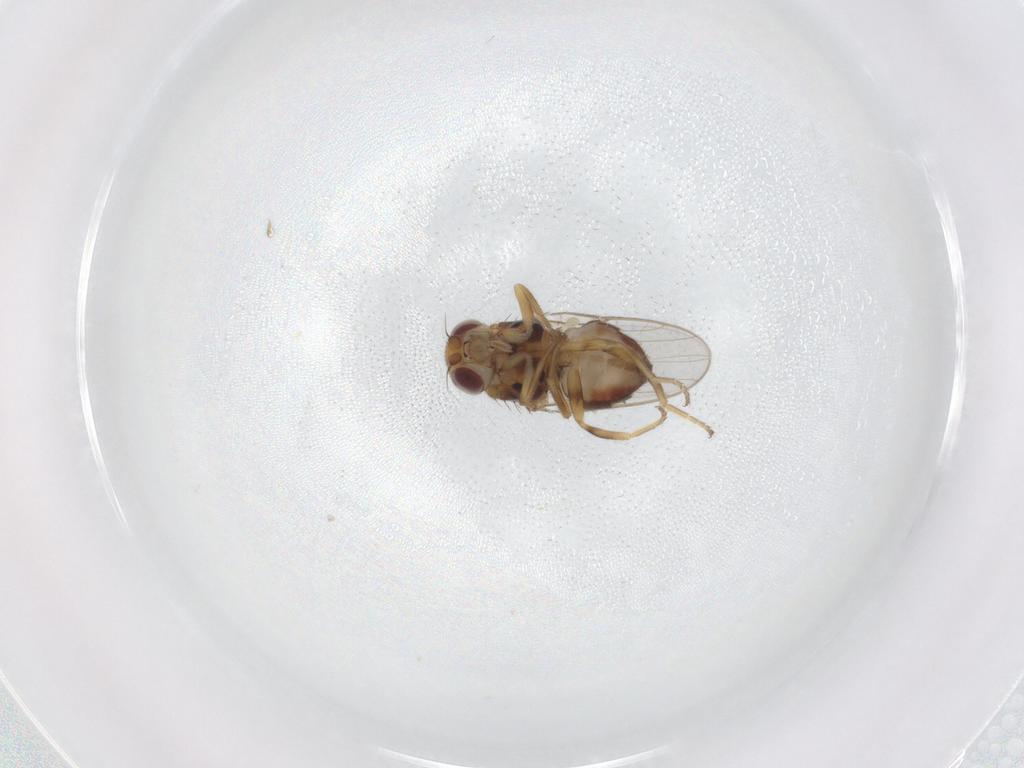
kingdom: Animalia
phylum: Arthropoda
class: Insecta
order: Diptera
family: Chloropidae
